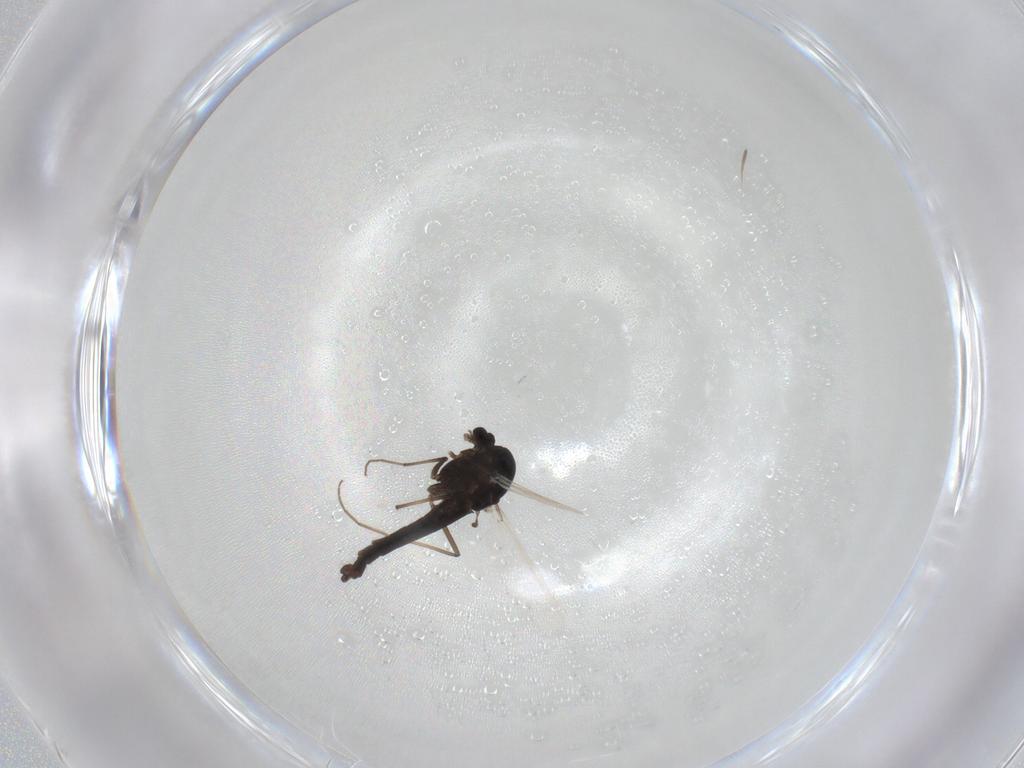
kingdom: Animalia
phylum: Arthropoda
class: Insecta
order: Diptera
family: Chironomidae
